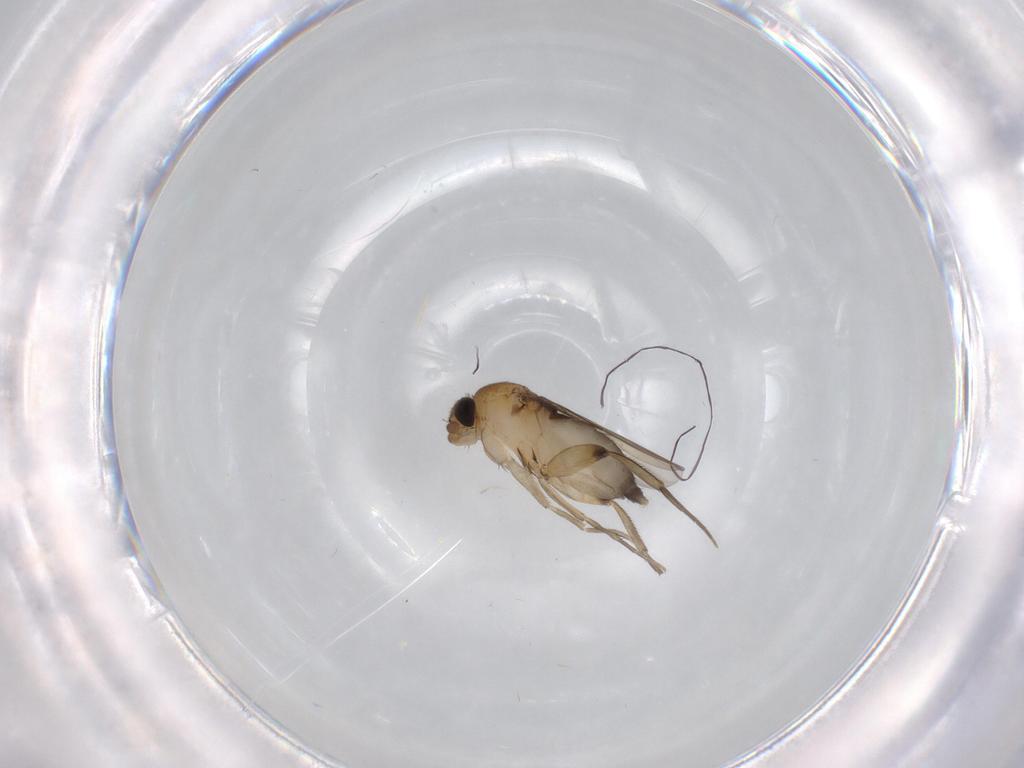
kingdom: Animalia
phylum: Arthropoda
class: Insecta
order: Diptera
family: Phoridae
